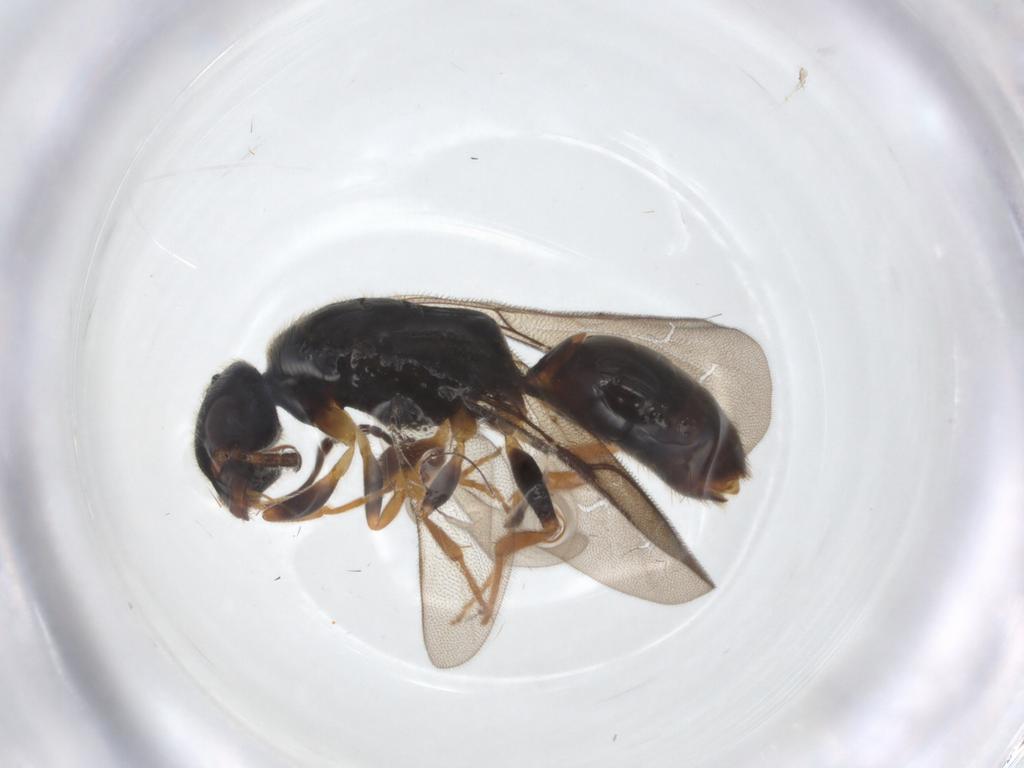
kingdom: Animalia
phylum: Arthropoda
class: Insecta
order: Hymenoptera
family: Bethylidae
